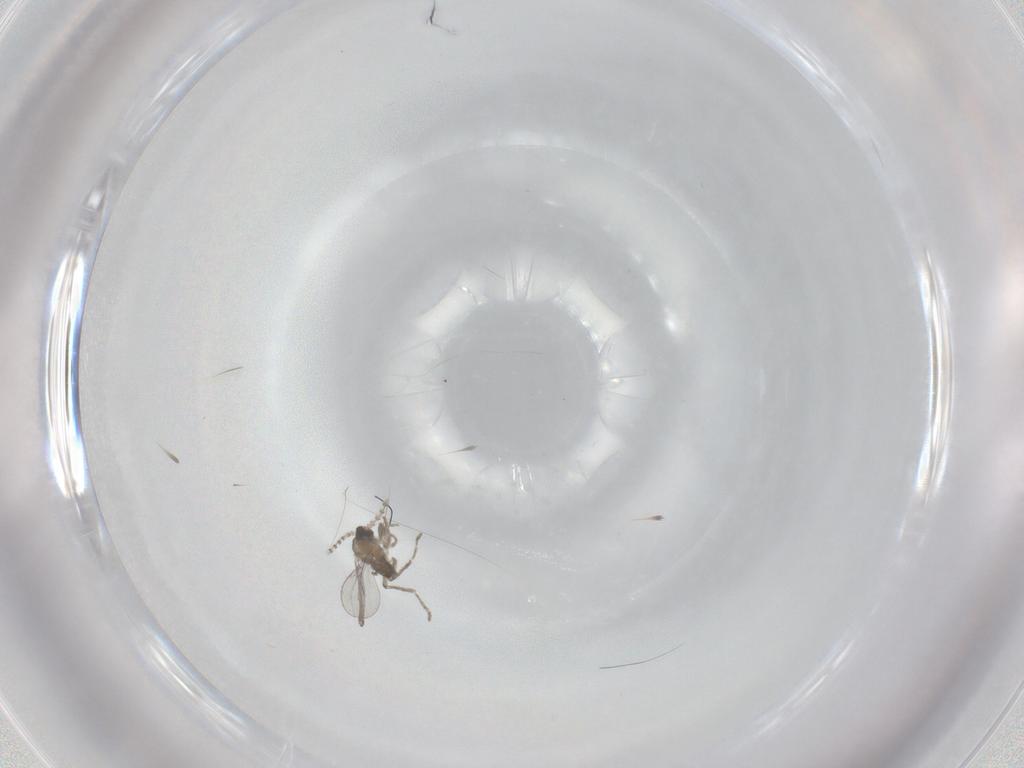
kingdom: Animalia
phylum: Arthropoda
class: Insecta
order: Diptera
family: Cecidomyiidae
